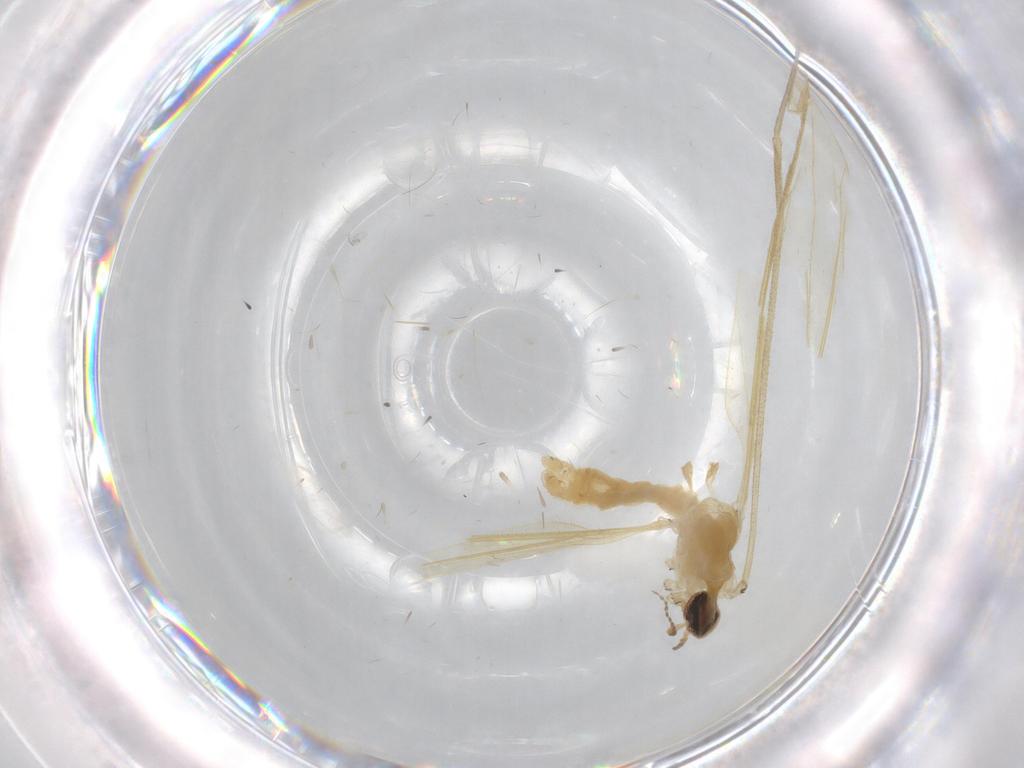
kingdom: Animalia
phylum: Arthropoda
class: Insecta
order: Diptera
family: Limoniidae
